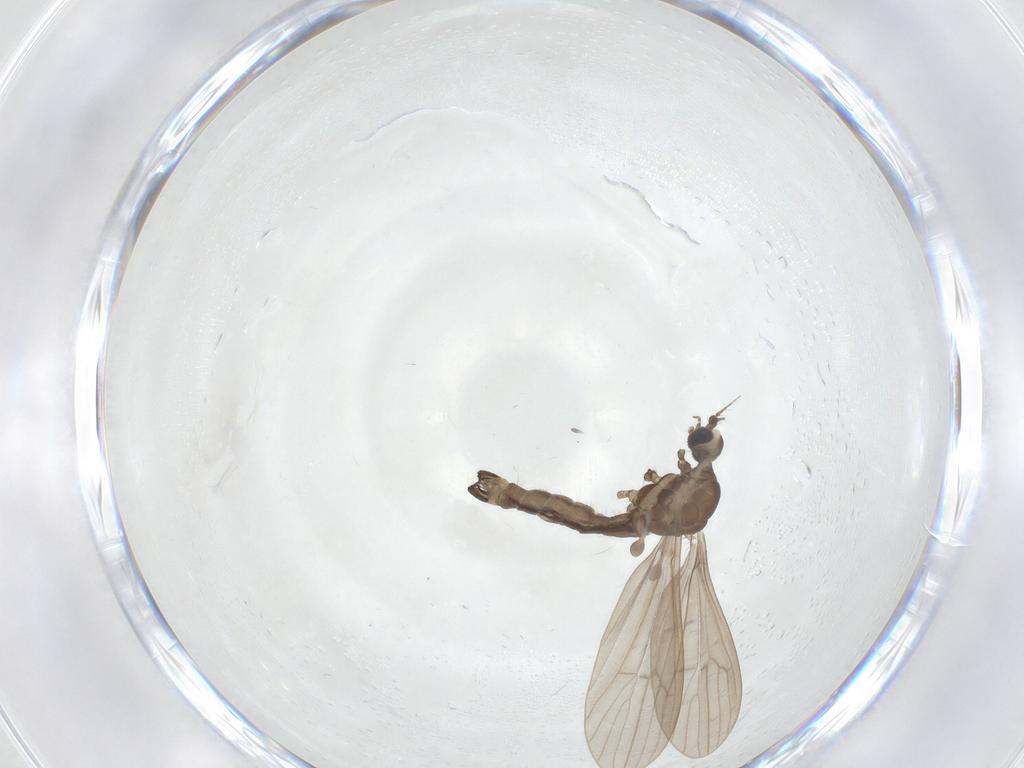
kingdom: Animalia
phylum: Arthropoda
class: Insecta
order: Diptera
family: Cecidomyiidae
